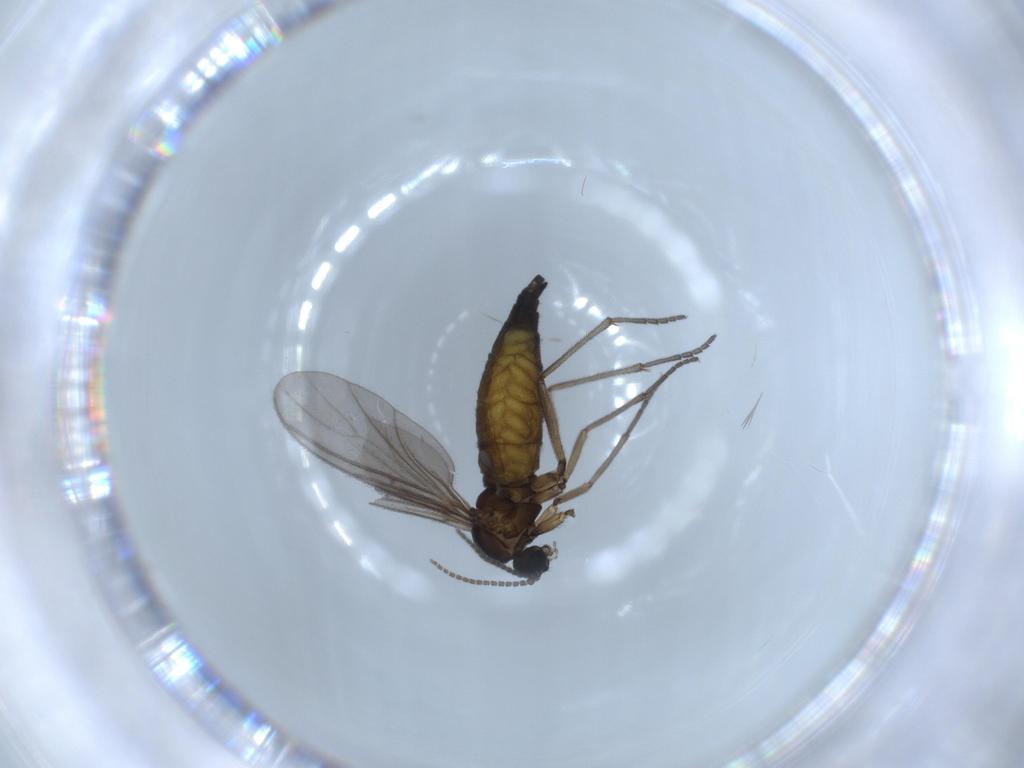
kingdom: Animalia
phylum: Arthropoda
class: Insecta
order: Diptera
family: Sciaridae
